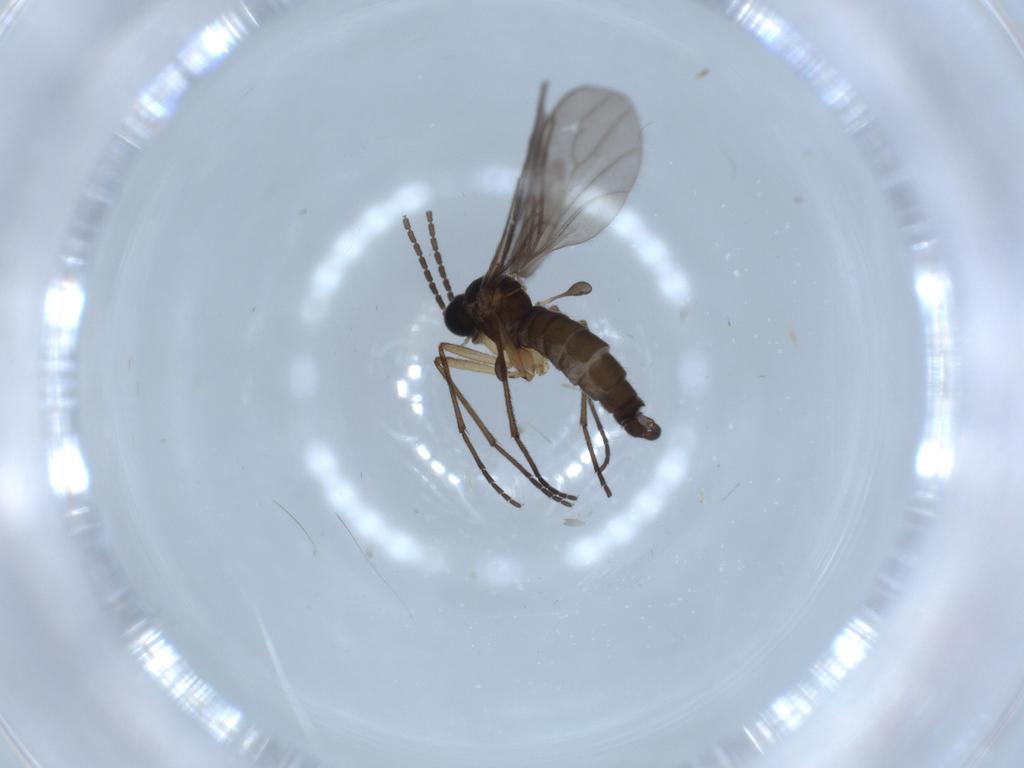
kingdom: Animalia
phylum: Arthropoda
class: Insecta
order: Diptera
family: Sciaridae
